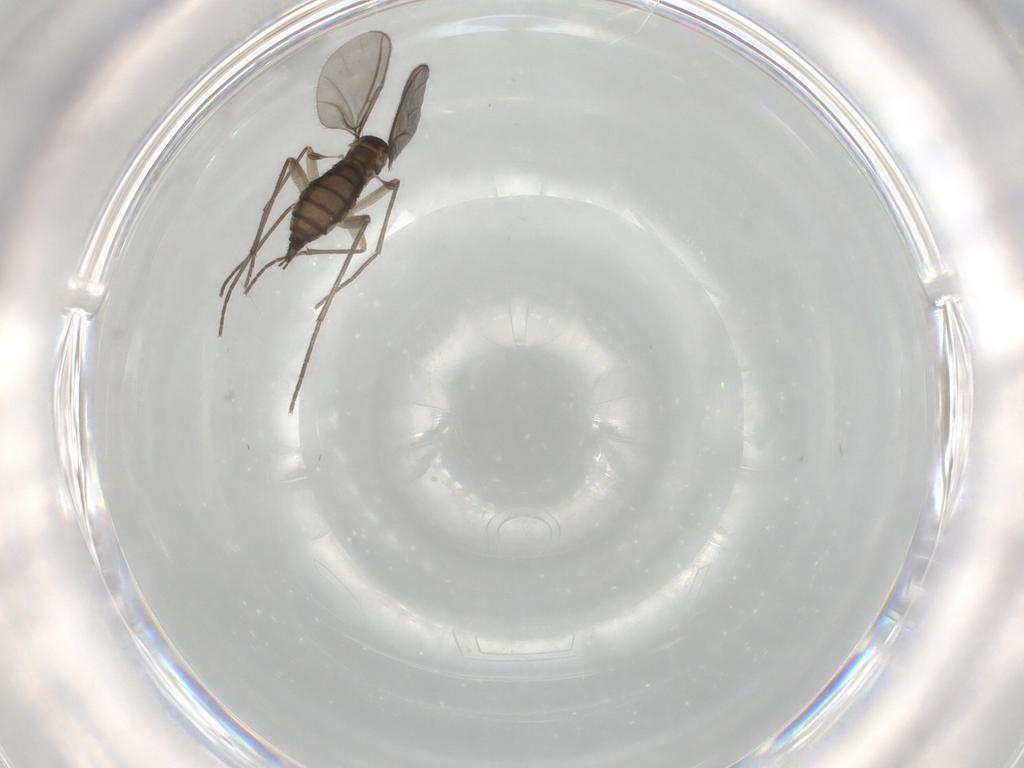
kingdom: Animalia
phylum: Arthropoda
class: Insecta
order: Diptera
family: Sciaridae
